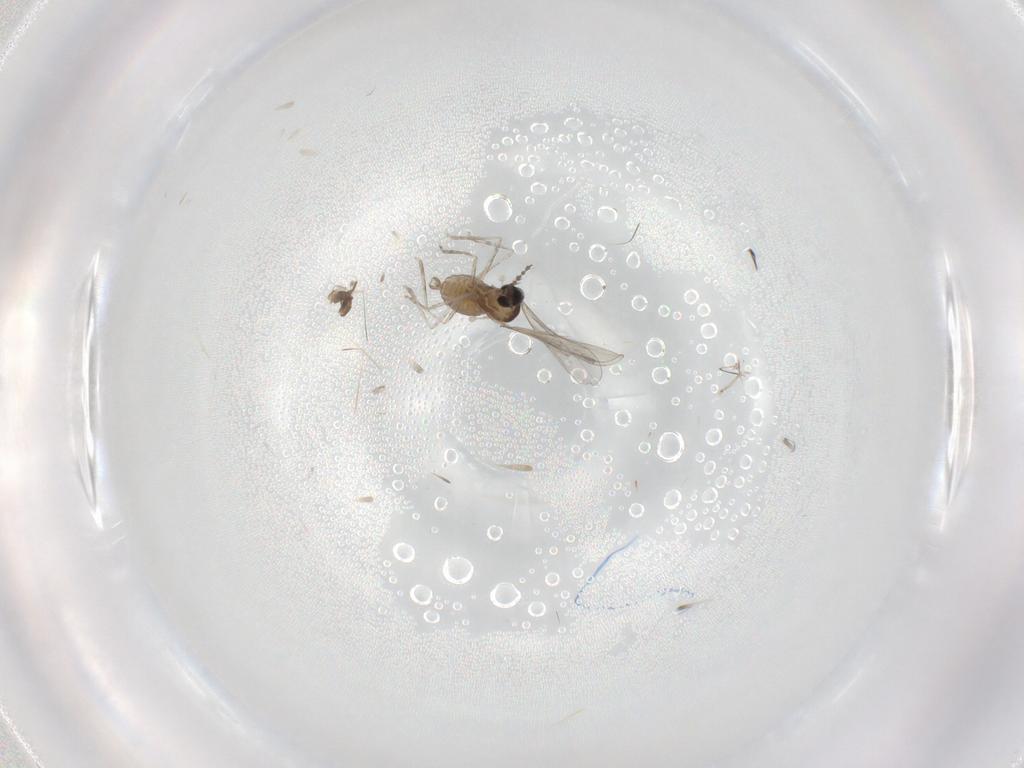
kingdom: Animalia
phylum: Arthropoda
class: Insecta
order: Diptera
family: Cecidomyiidae
